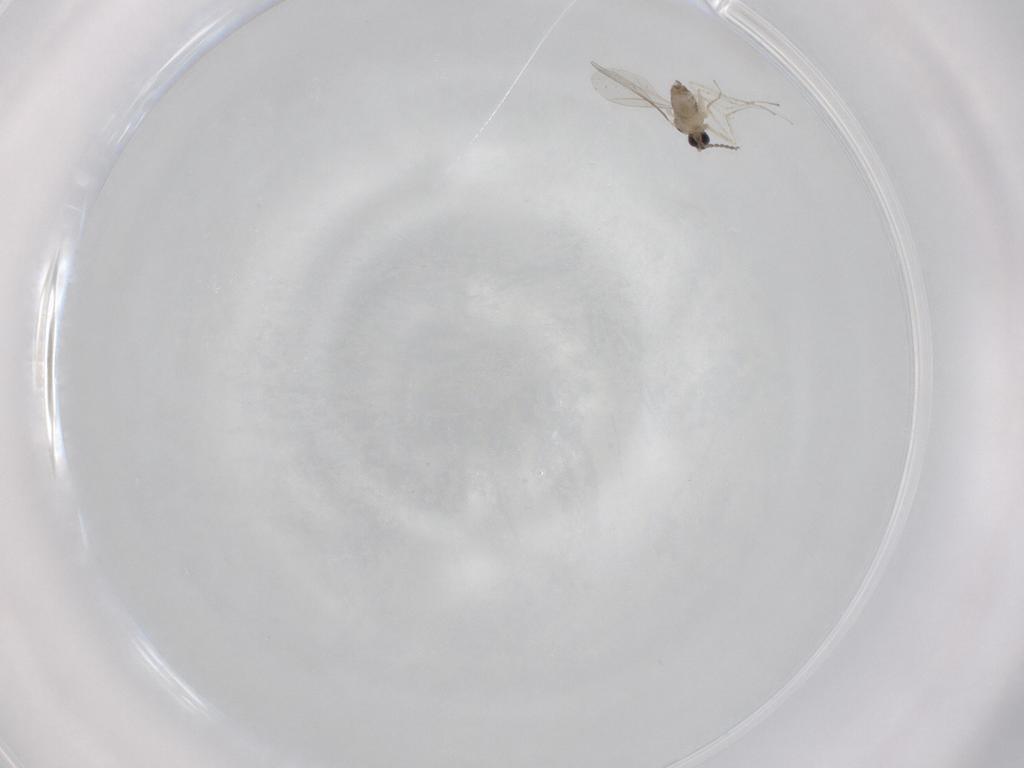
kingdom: Animalia
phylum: Arthropoda
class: Insecta
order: Diptera
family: Cecidomyiidae
